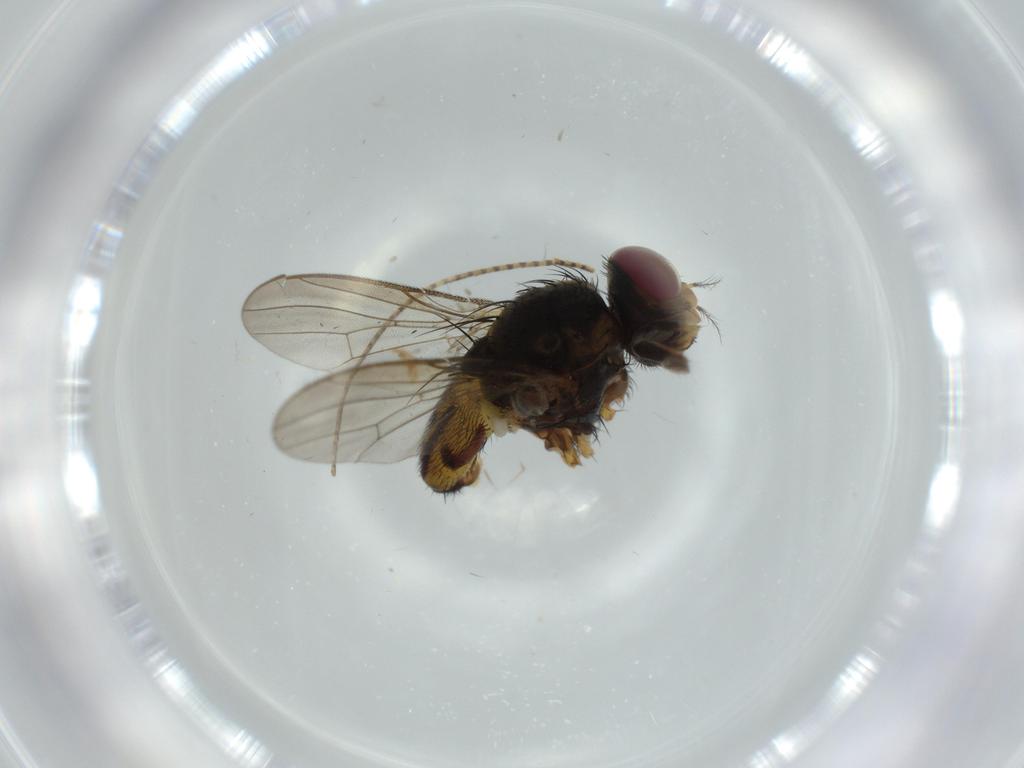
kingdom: Animalia
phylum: Arthropoda
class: Insecta
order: Diptera
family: Anthomyiidae
